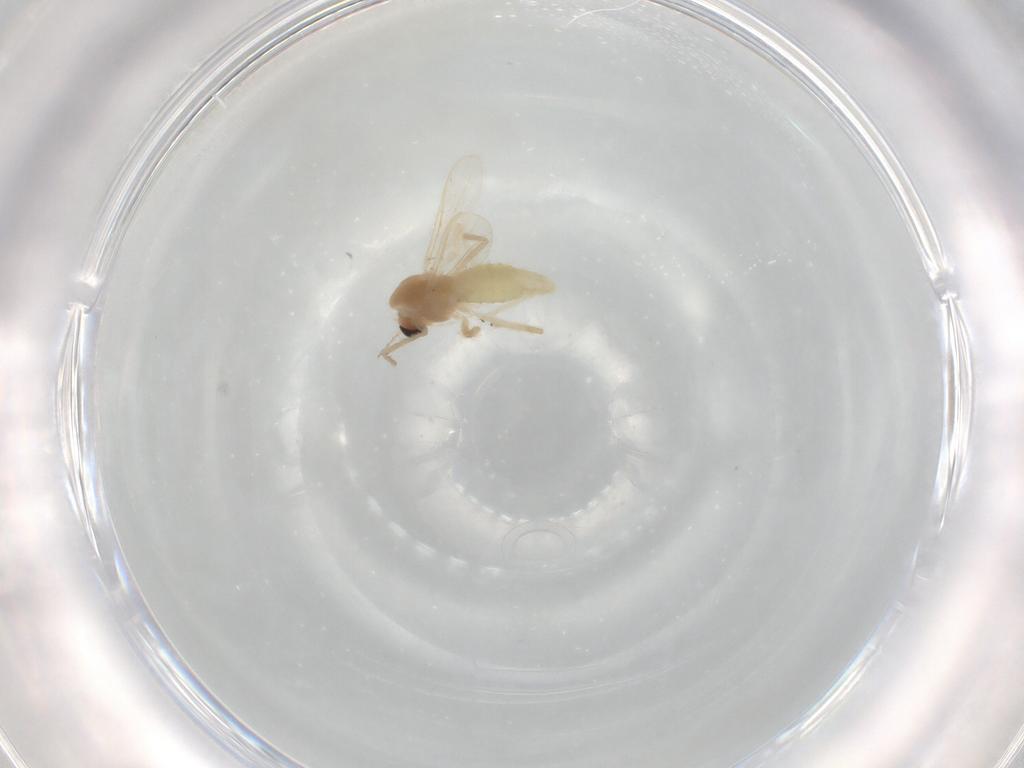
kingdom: Animalia
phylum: Arthropoda
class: Insecta
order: Diptera
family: Chironomidae
